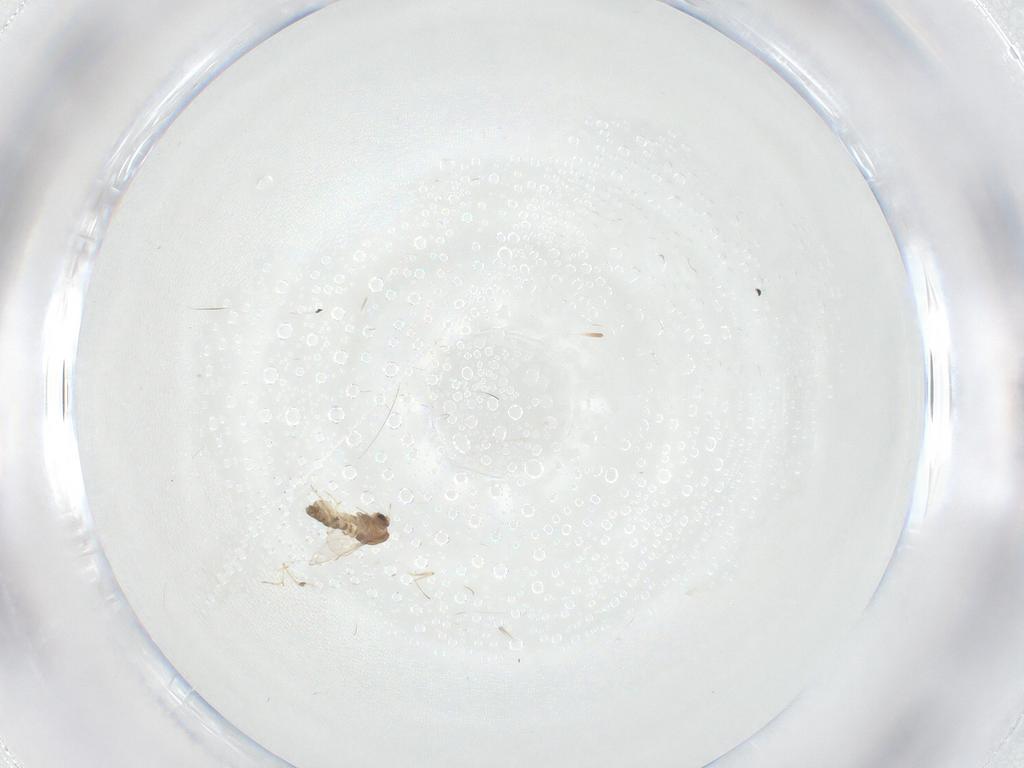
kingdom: Animalia
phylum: Arthropoda
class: Insecta
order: Diptera
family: Chironomidae
